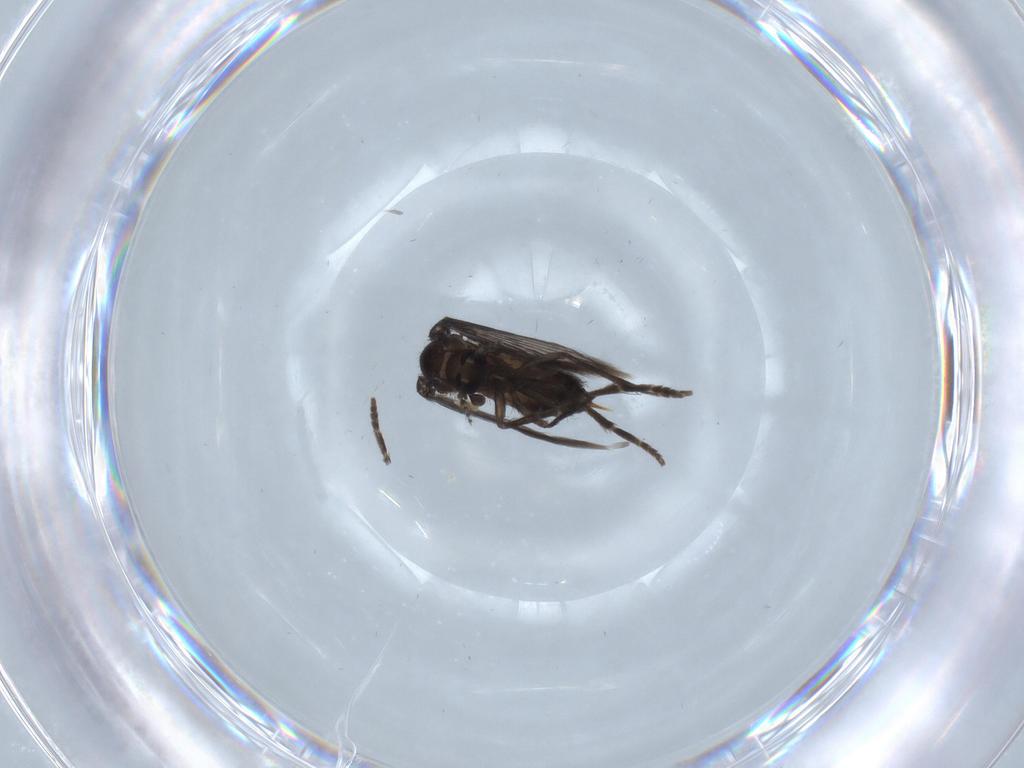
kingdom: Animalia
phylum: Arthropoda
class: Insecta
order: Diptera
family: Psychodidae
